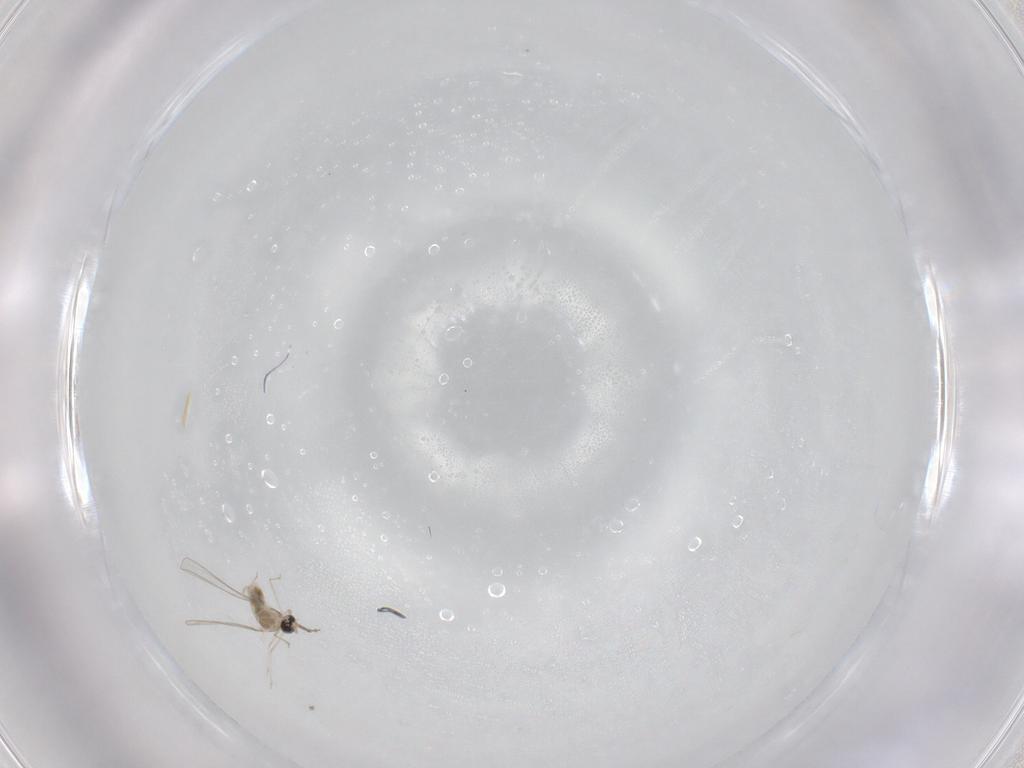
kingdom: Animalia
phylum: Arthropoda
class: Insecta
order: Diptera
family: Cecidomyiidae
